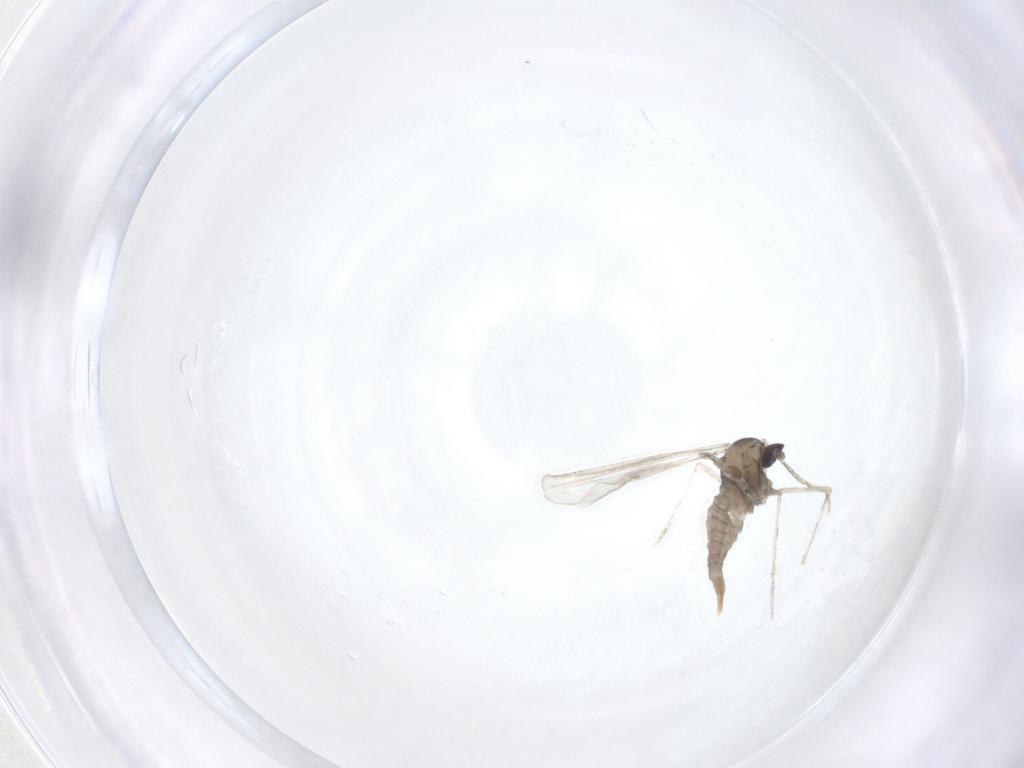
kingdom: Animalia
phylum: Arthropoda
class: Insecta
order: Diptera
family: Cecidomyiidae
